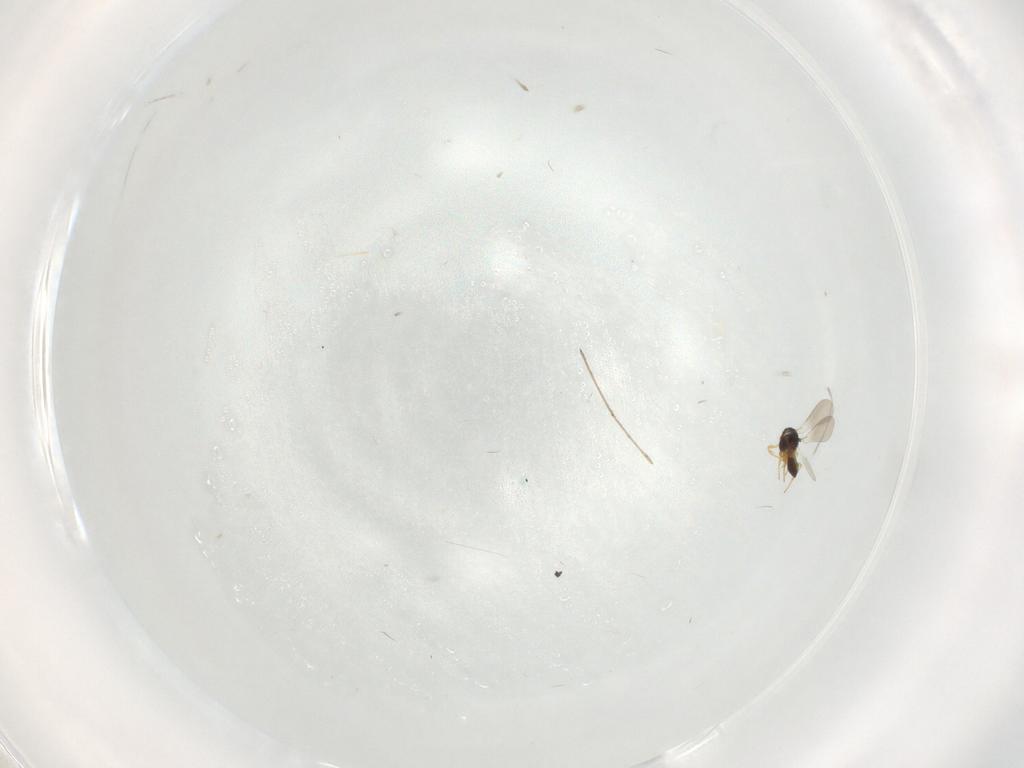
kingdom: Animalia
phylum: Arthropoda
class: Insecta
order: Hymenoptera
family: Platygastridae
